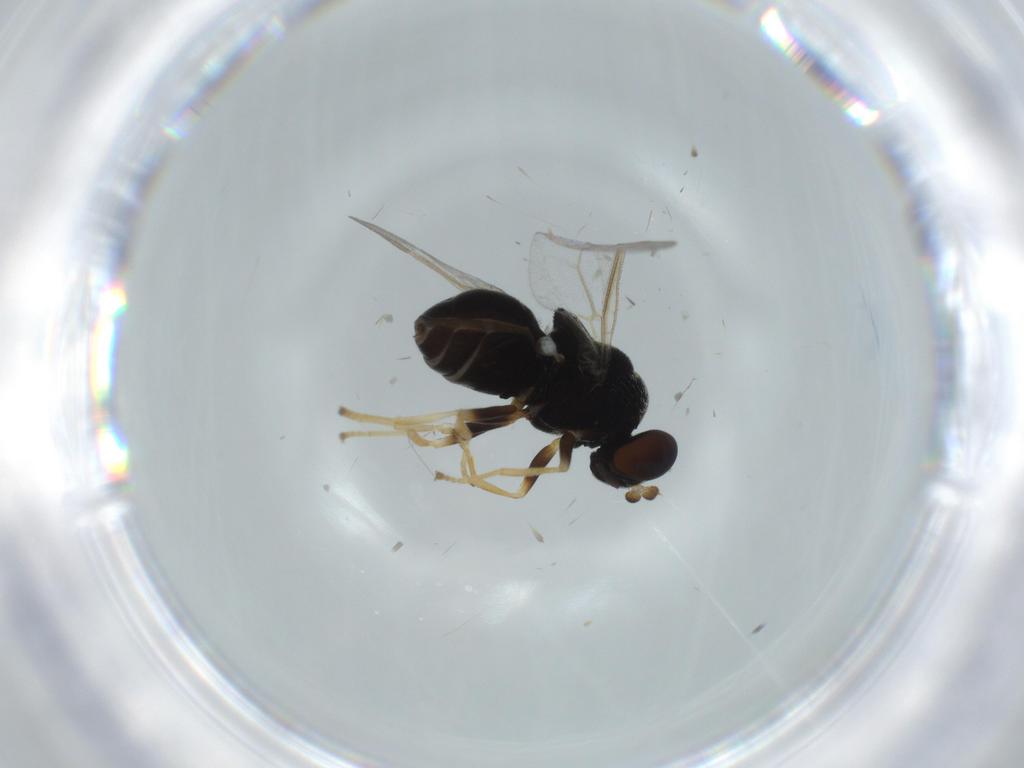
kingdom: Animalia
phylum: Arthropoda
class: Insecta
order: Diptera
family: Stratiomyidae
